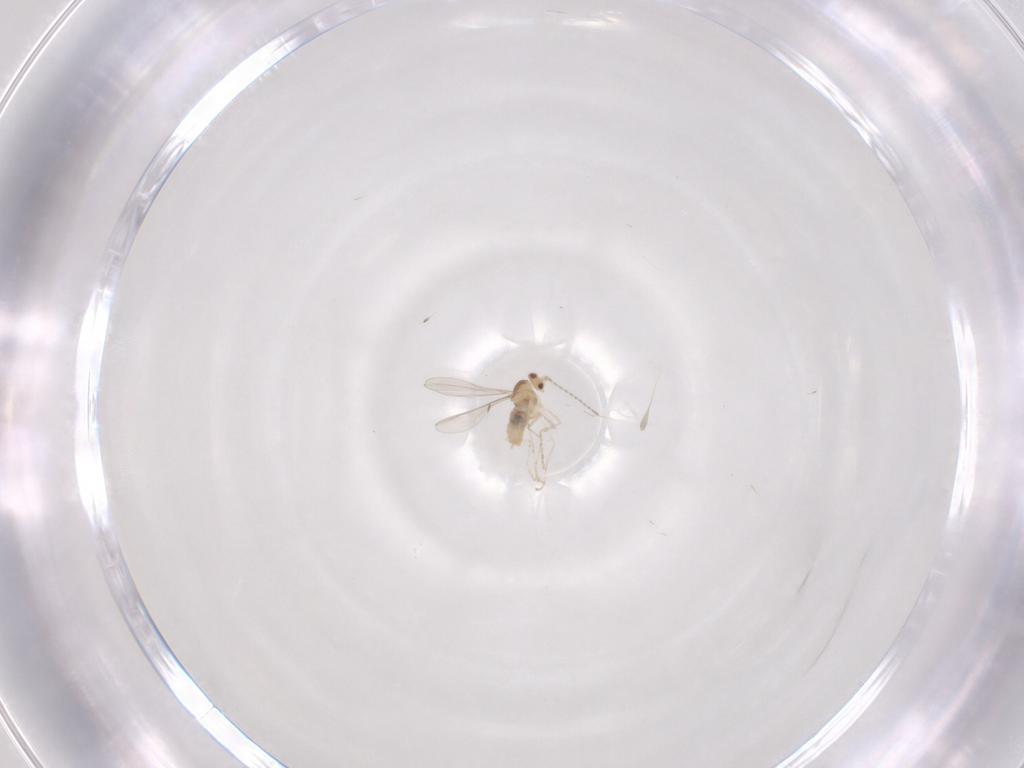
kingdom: Animalia
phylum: Arthropoda
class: Insecta
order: Diptera
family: Cecidomyiidae
